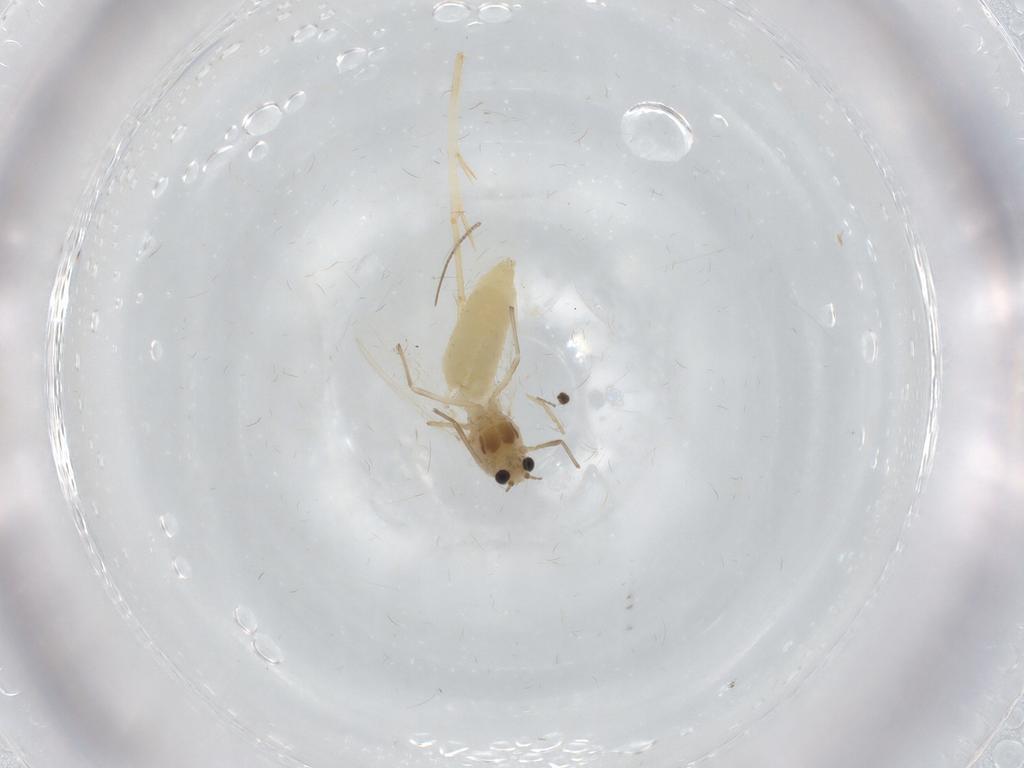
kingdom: Animalia
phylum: Arthropoda
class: Insecta
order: Diptera
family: Chironomidae
